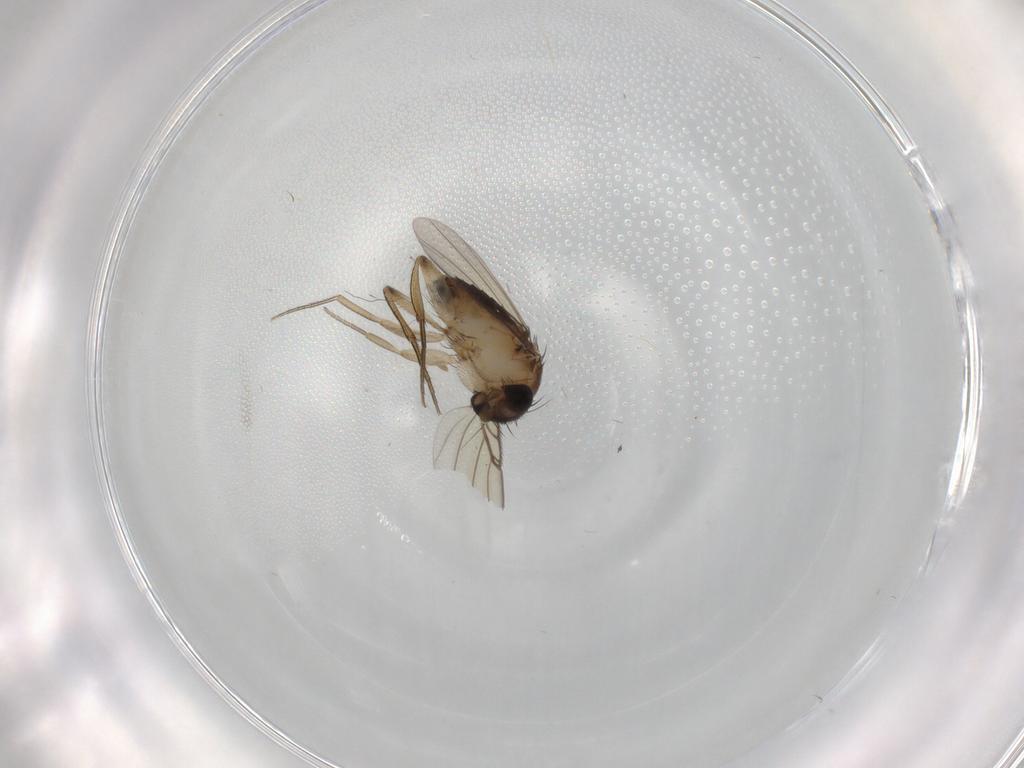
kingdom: Animalia
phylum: Arthropoda
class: Insecta
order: Diptera
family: Cecidomyiidae
